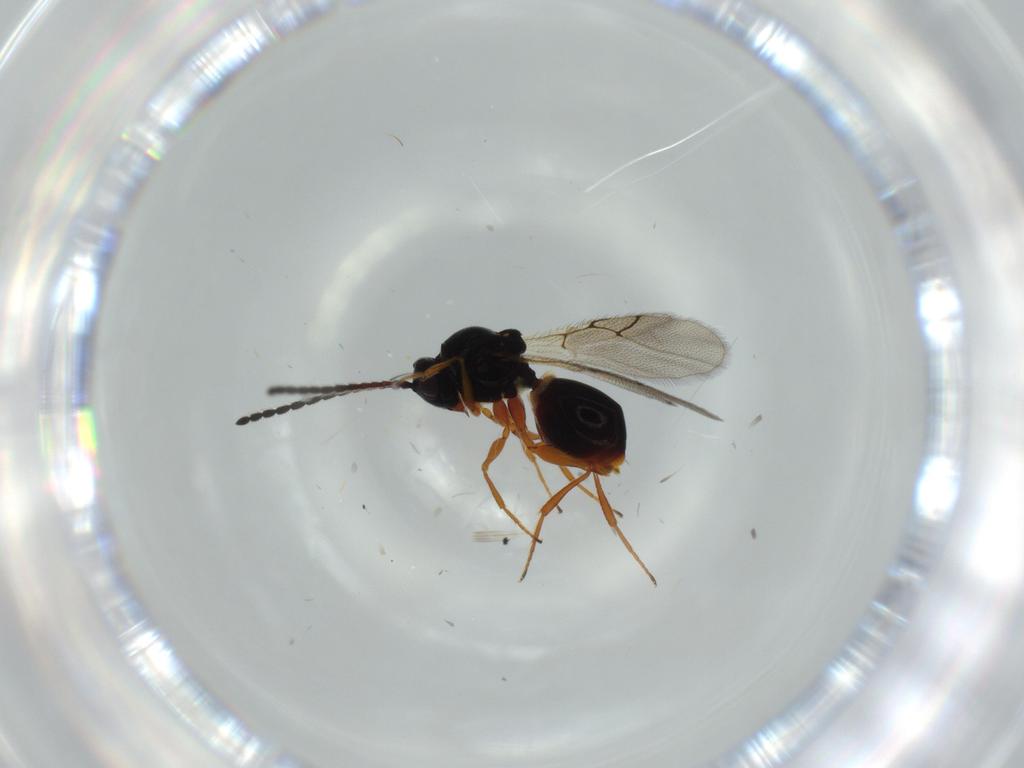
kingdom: Animalia
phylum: Arthropoda
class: Insecta
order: Hymenoptera
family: Figitidae
